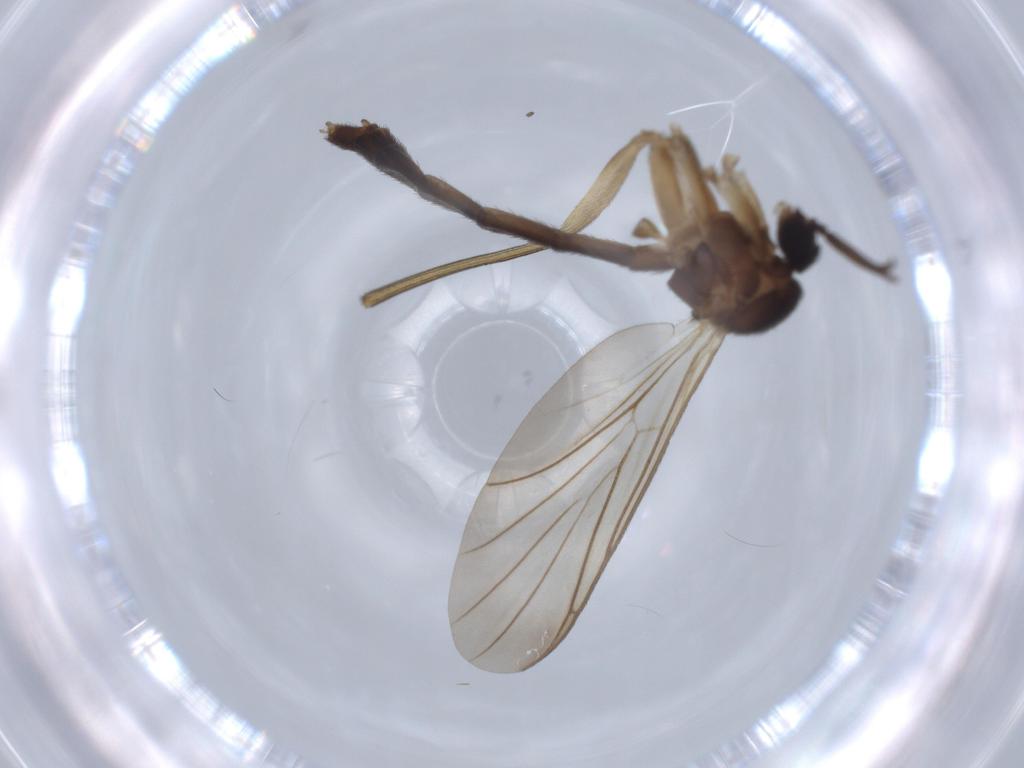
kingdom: Animalia
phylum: Arthropoda
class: Insecta
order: Diptera
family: Keroplatidae
